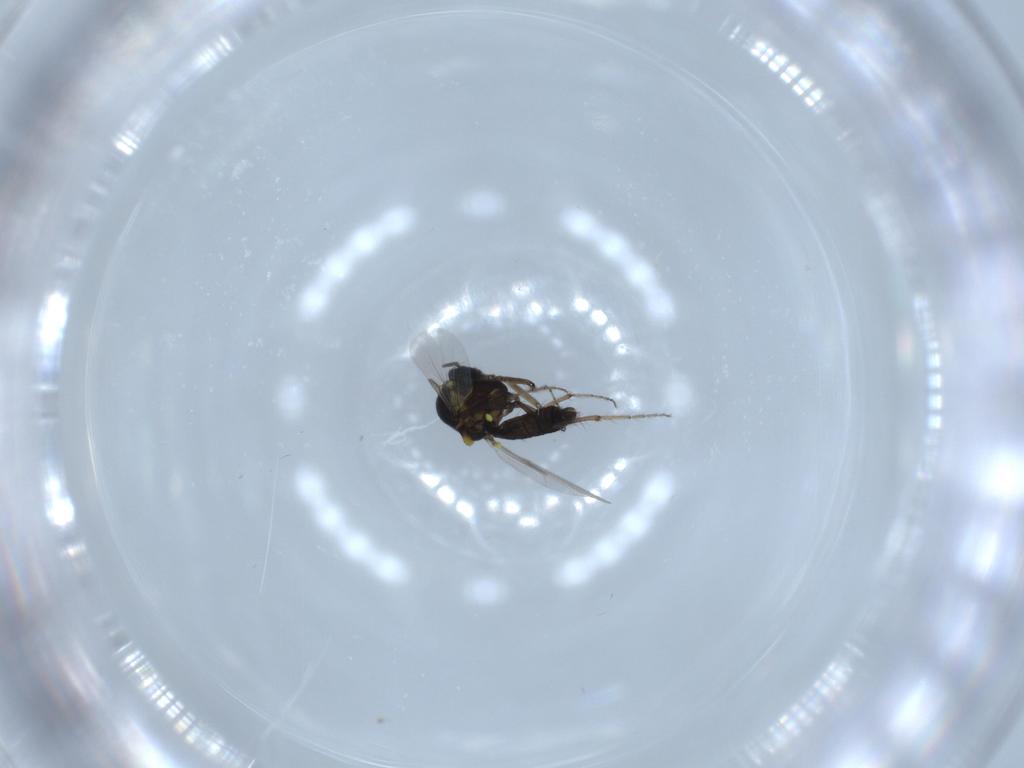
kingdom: Animalia
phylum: Arthropoda
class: Insecta
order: Diptera
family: Ceratopogonidae
